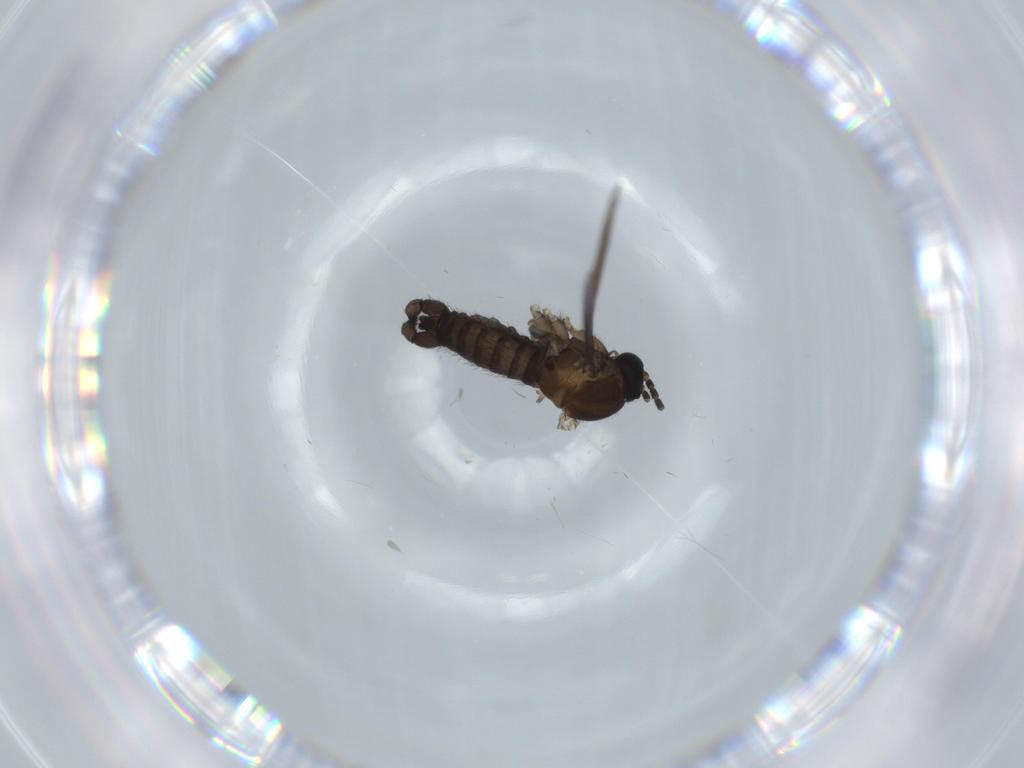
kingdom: Animalia
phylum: Arthropoda
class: Insecta
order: Diptera
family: Sciaridae
